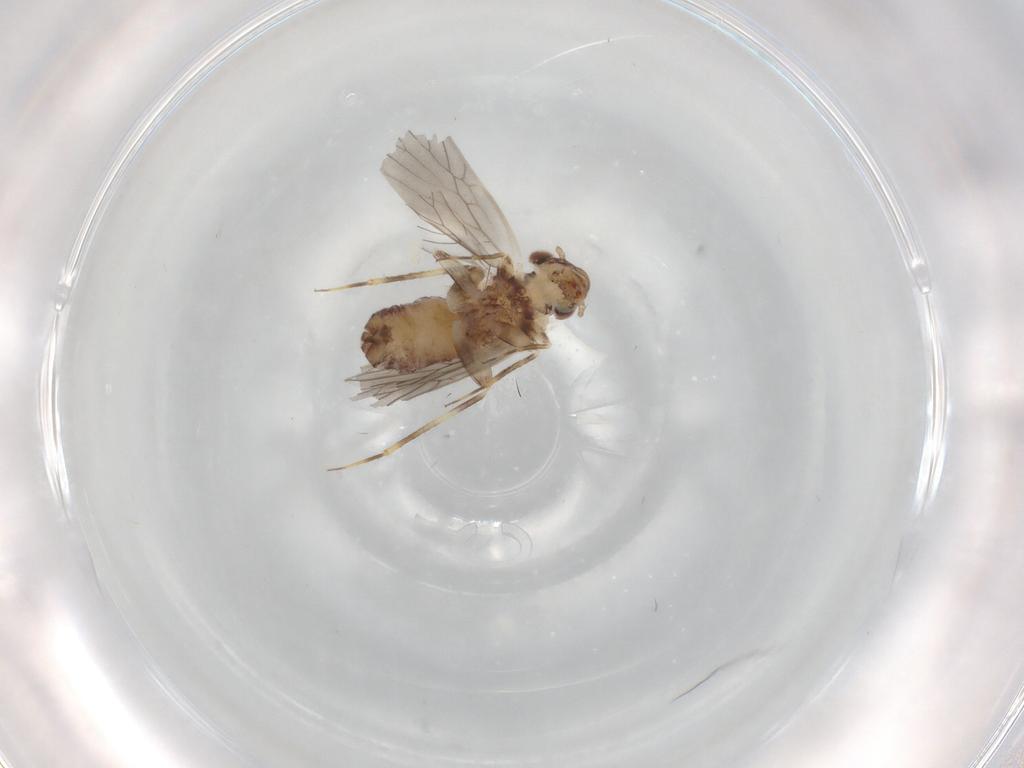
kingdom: Animalia
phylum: Arthropoda
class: Insecta
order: Psocodea
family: Lepidopsocidae
